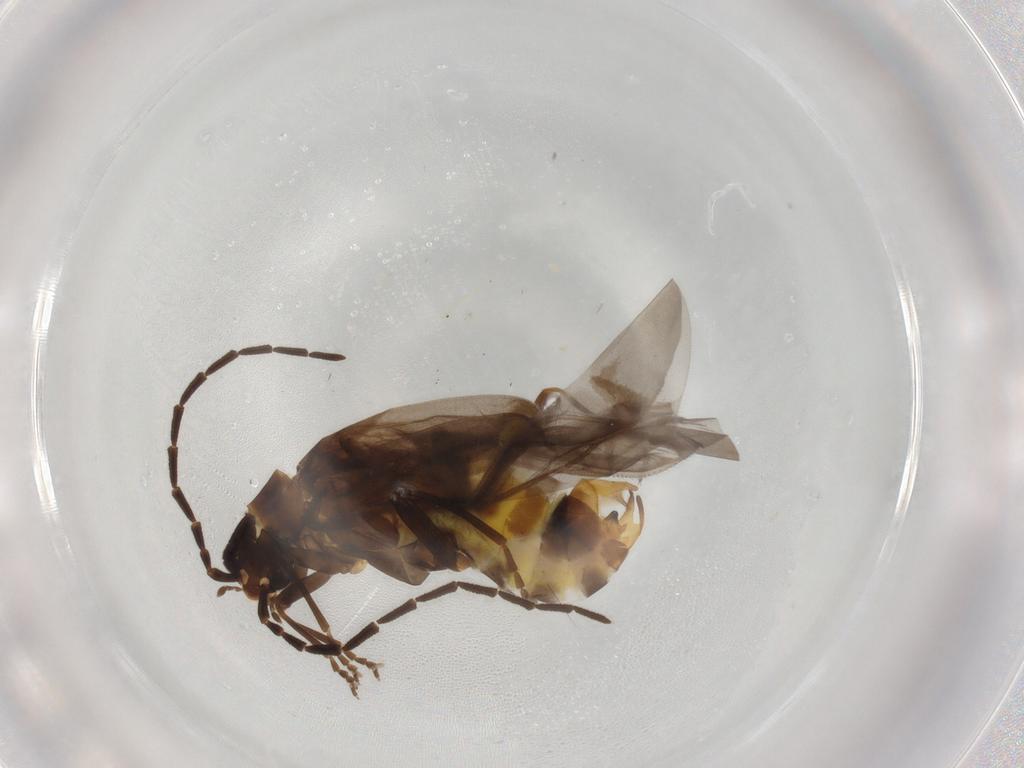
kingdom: Animalia
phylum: Arthropoda
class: Insecta
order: Coleoptera
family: Cantharidae
